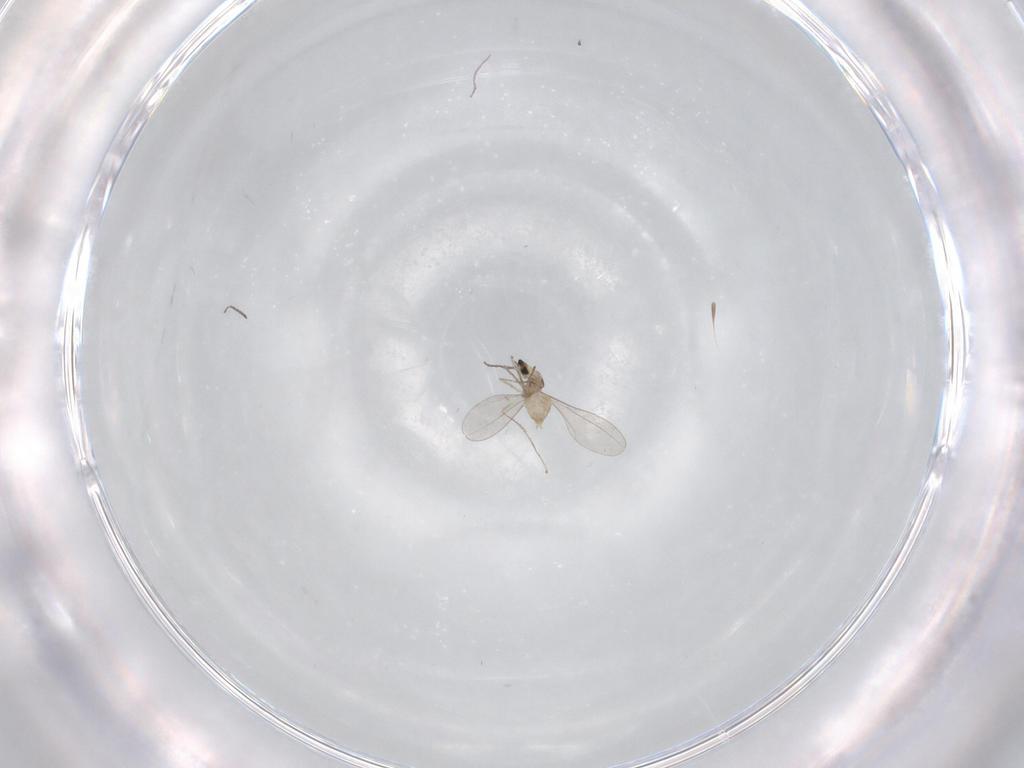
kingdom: Animalia
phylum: Arthropoda
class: Insecta
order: Diptera
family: Cecidomyiidae
